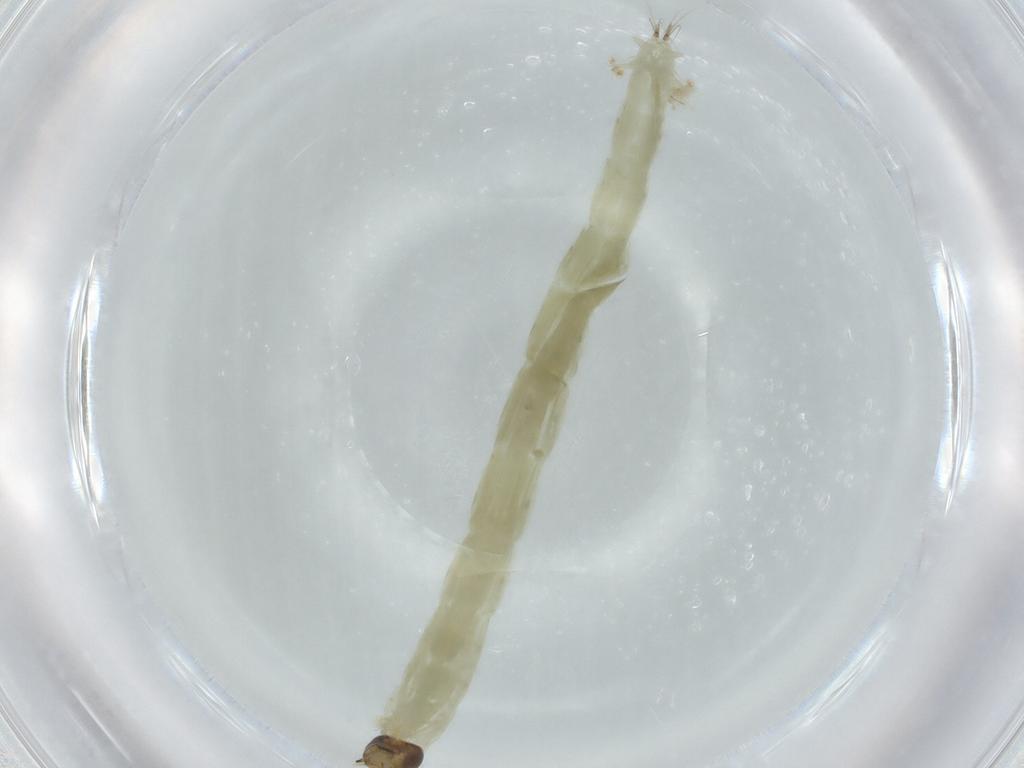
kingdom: Animalia
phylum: Arthropoda
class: Insecta
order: Diptera
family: Chironomidae
